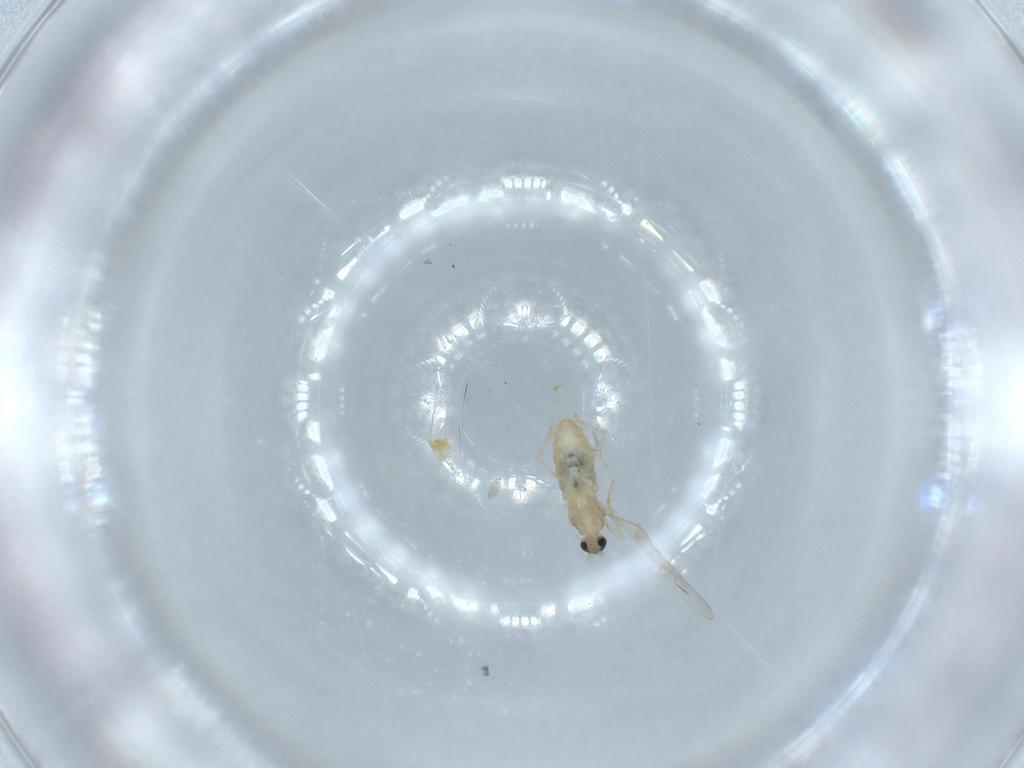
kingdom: Animalia
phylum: Arthropoda
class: Insecta
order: Diptera
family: Cecidomyiidae
